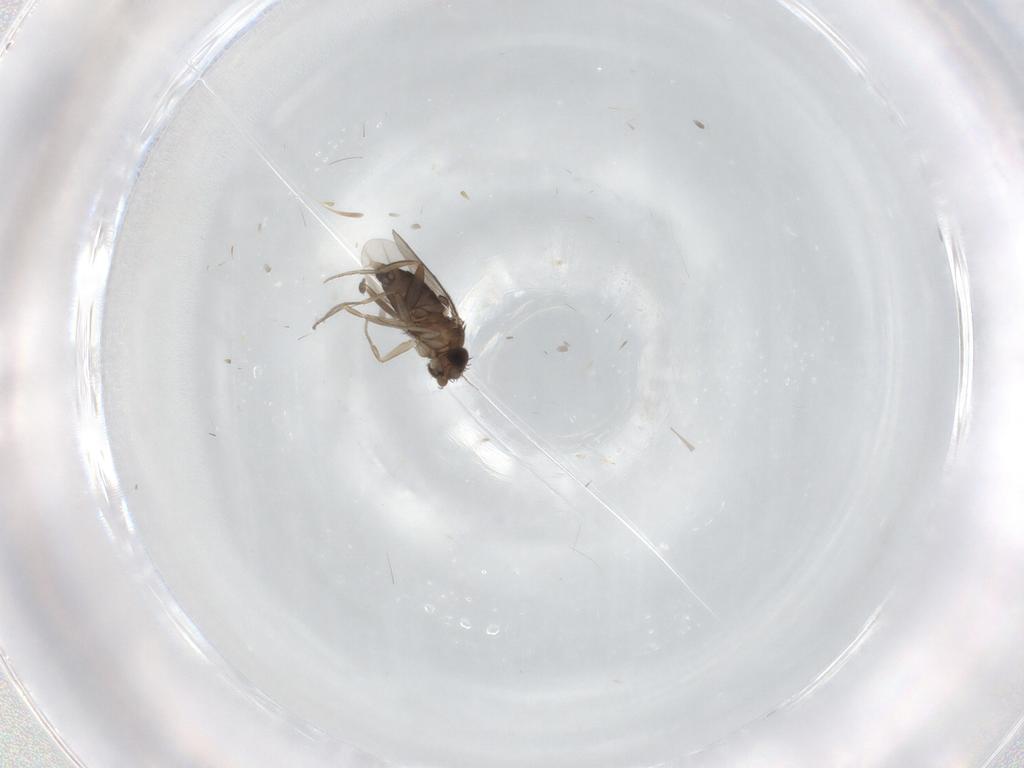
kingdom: Animalia
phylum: Arthropoda
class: Insecta
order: Diptera
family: Phoridae
